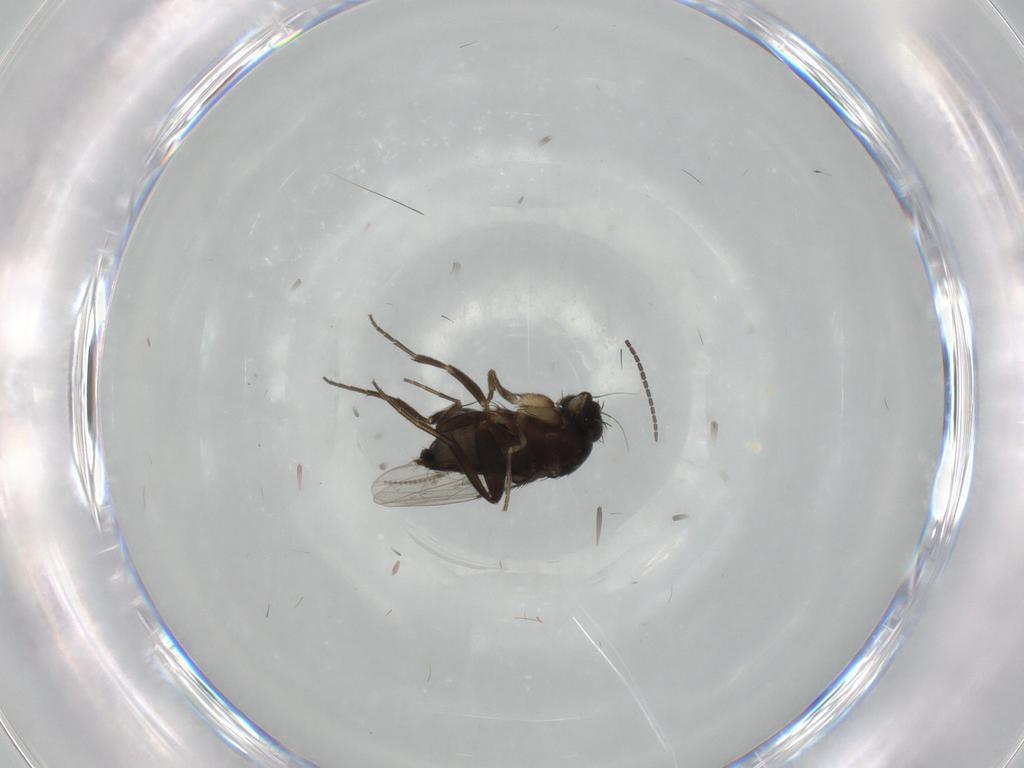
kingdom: Animalia
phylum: Arthropoda
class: Insecta
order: Diptera
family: Phoridae
